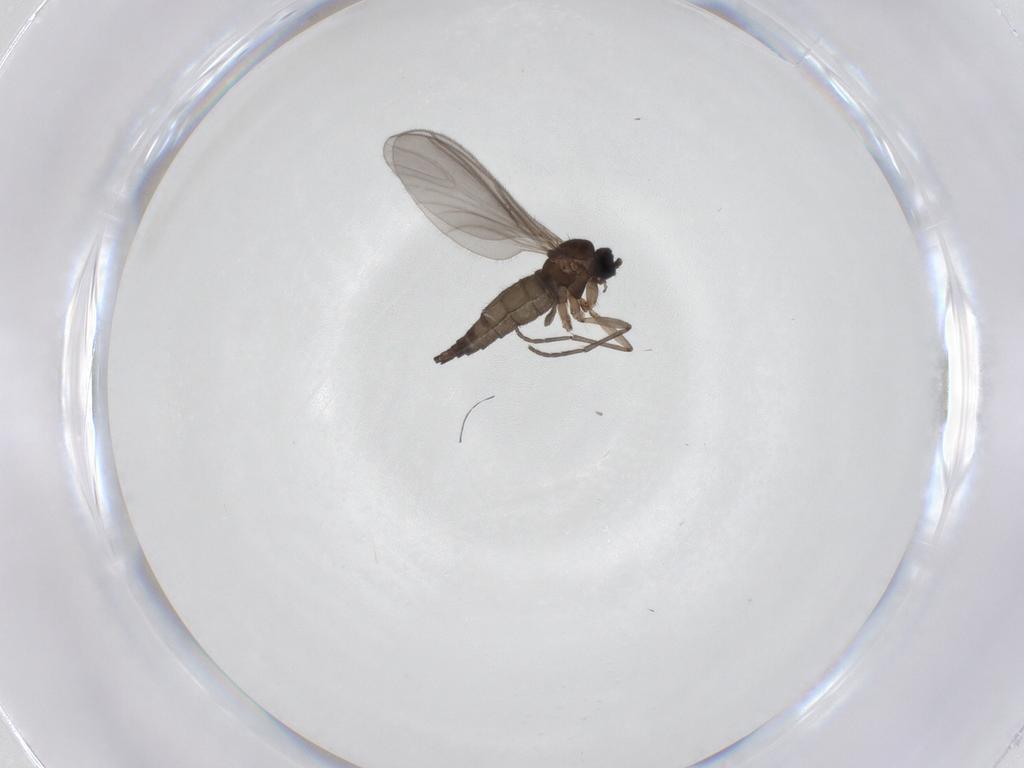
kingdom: Animalia
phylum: Arthropoda
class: Insecta
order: Diptera
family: Sciaridae
